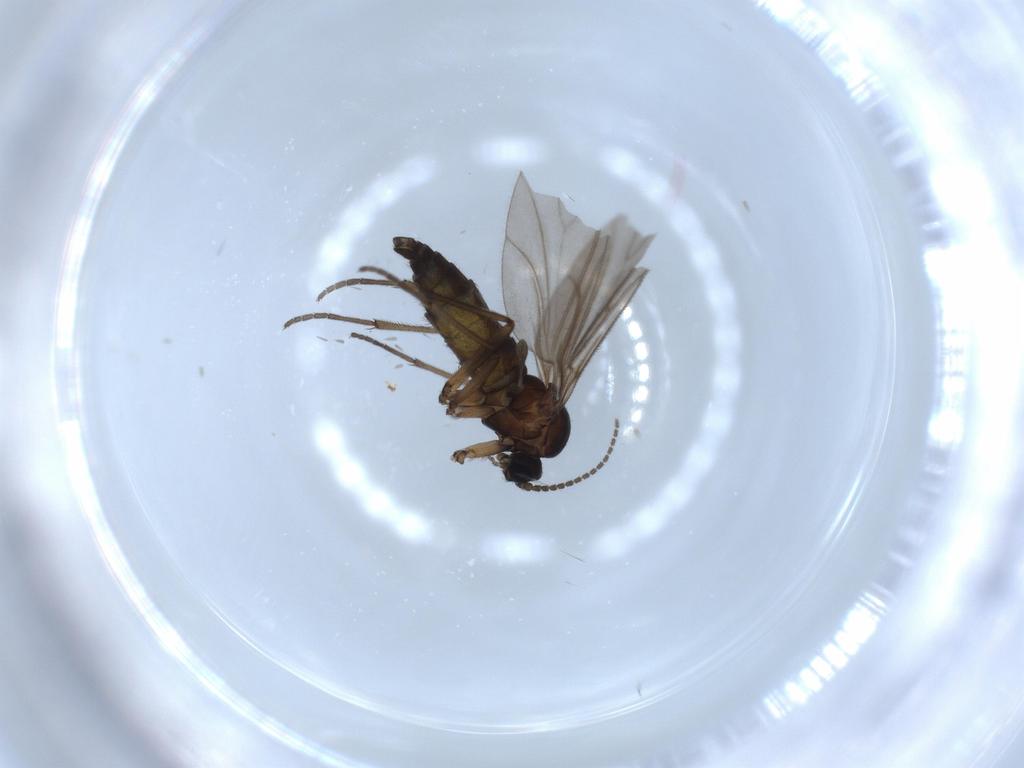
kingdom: Animalia
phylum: Arthropoda
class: Insecta
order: Diptera
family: Sciaridae
